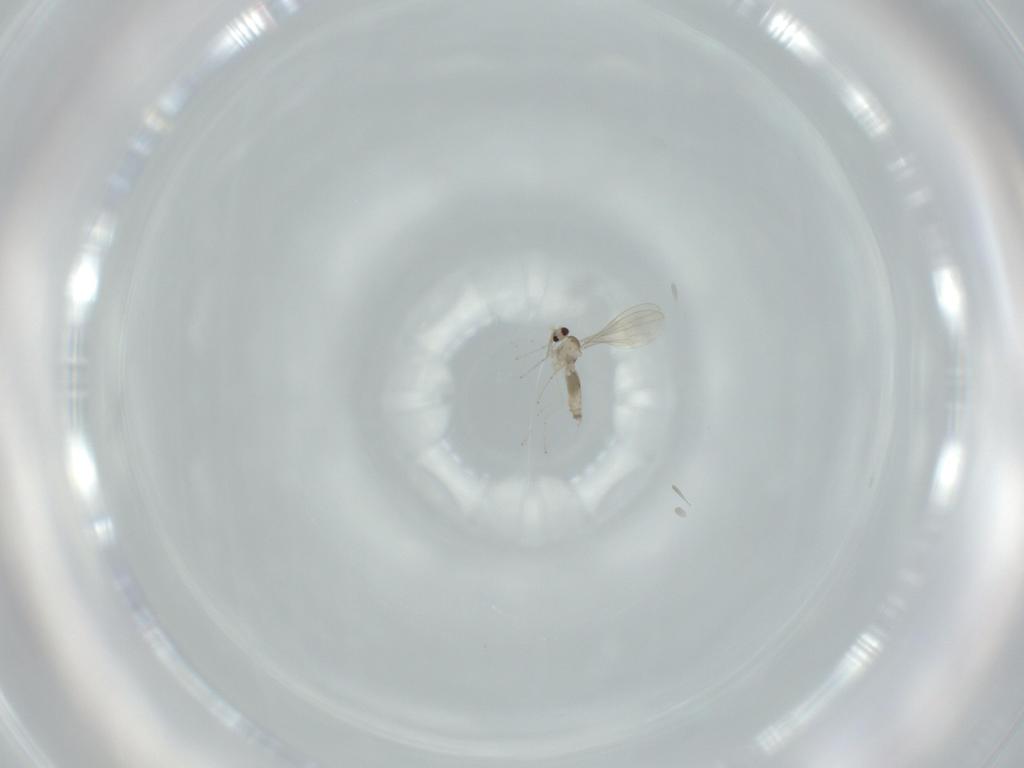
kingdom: Animalia
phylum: Arthropoda
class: Insecta
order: Diptera
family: Cecidomyiidae
